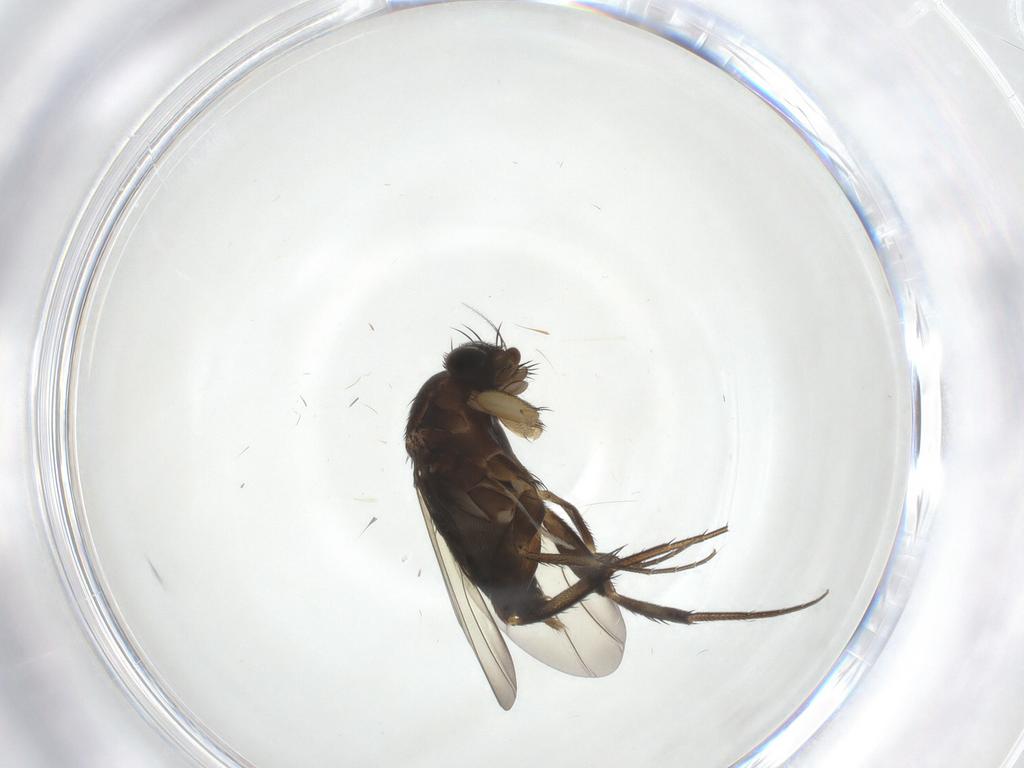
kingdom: Animalia
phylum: Arthropoda
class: Insecta
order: Diptera
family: Phoridae
